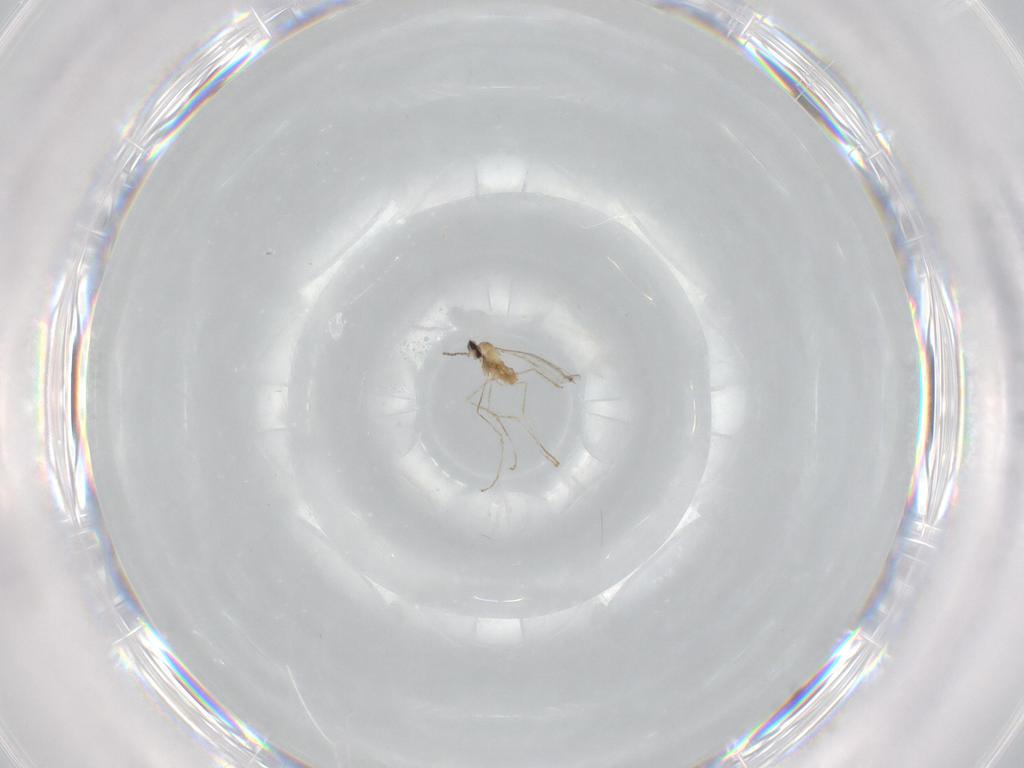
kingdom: Animalia
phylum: Arthropoda
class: Insecta
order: Diptera
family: Cecidomyiidae
